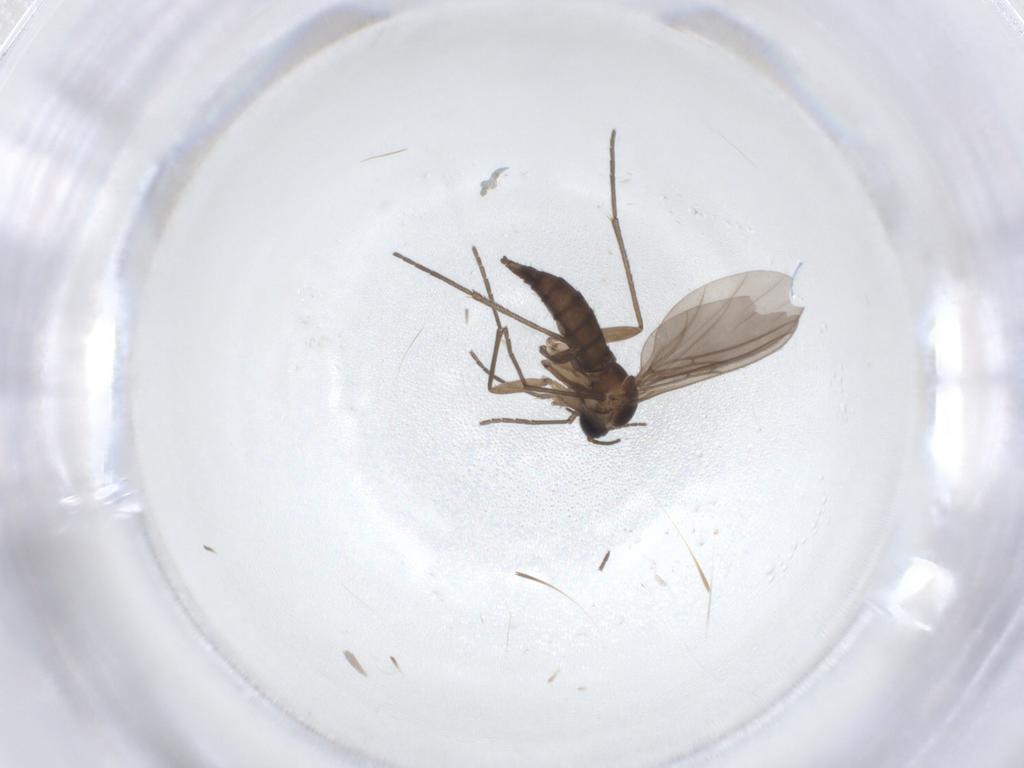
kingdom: Animalia
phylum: Arthropoda
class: Insecta
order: Diptera
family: Sciaridae
